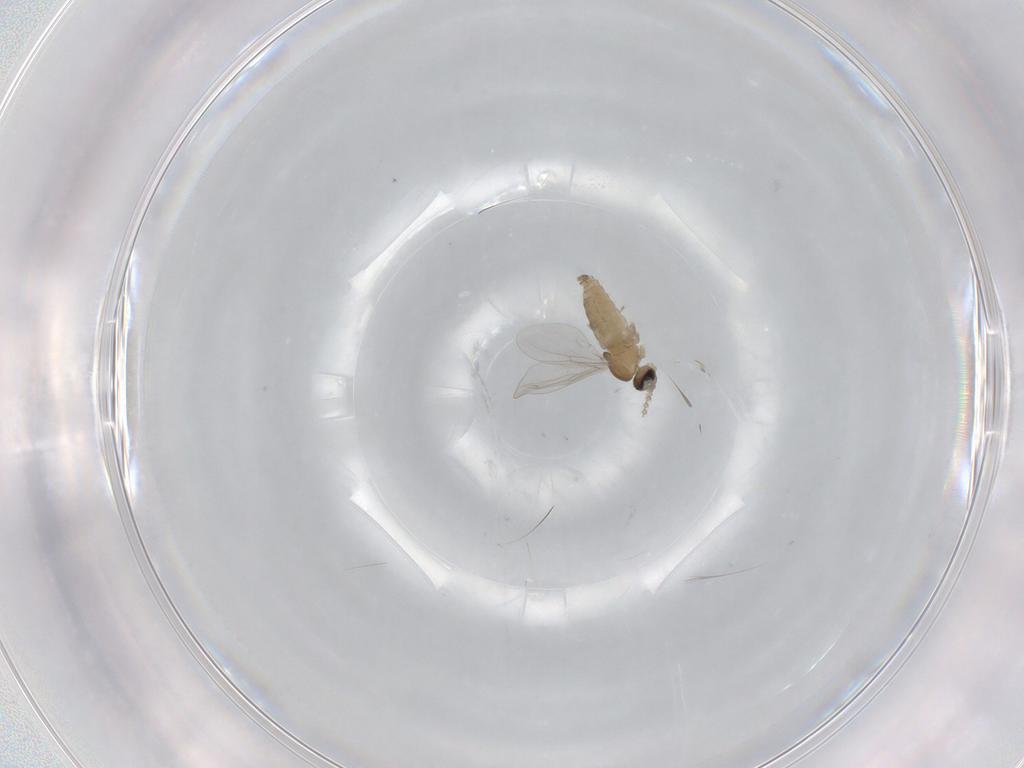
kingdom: Animalia
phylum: Arthropoda
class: Insecta
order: Diptera
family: Cecidomyiidae
